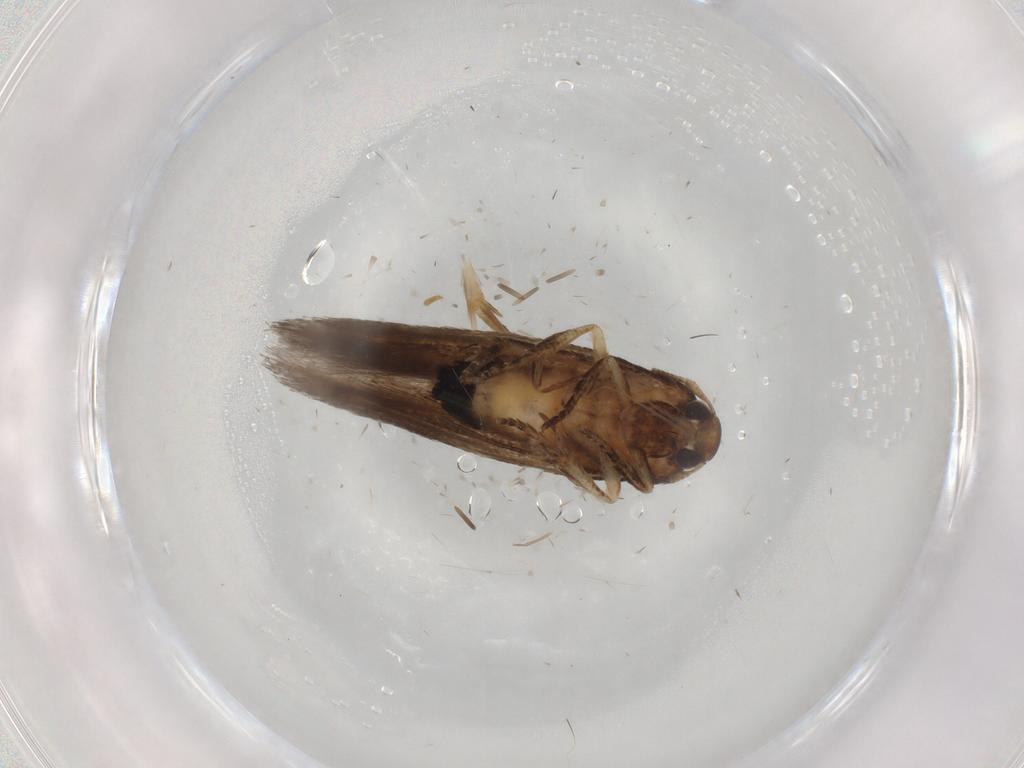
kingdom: Animalia
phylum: Arthropoda
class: Insecta
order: Lepidoptera
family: Cosmopterigidae
